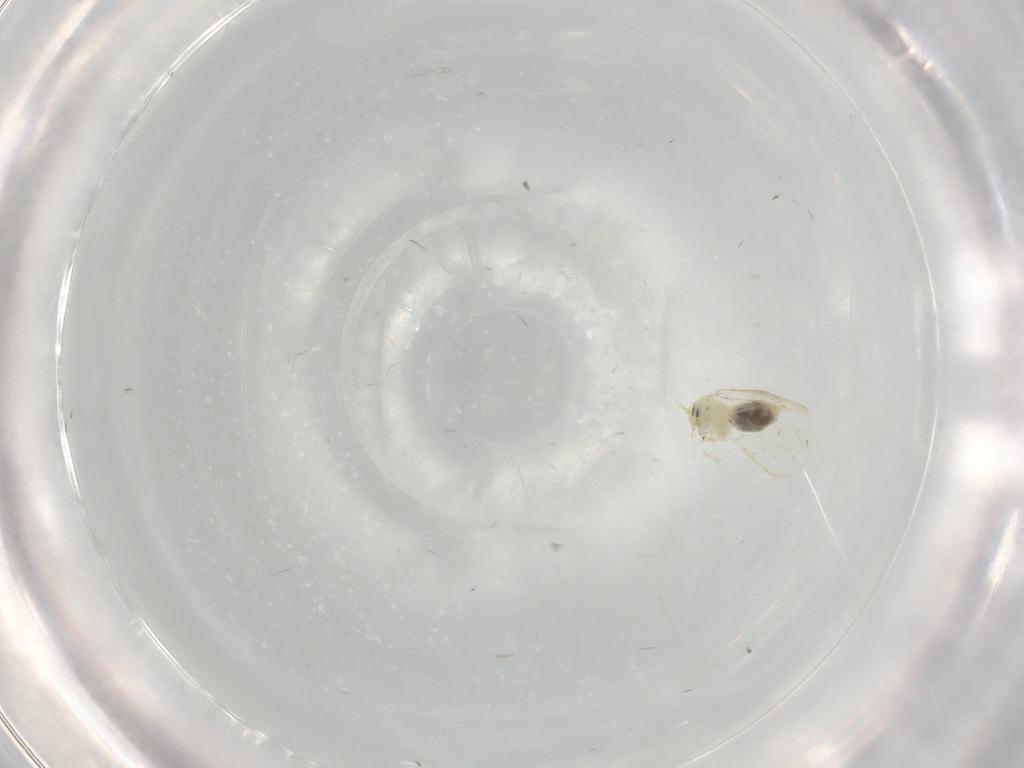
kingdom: Animalia
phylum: Arthropoda
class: Insecta
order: Hemiptera
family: Aleyrodidae
